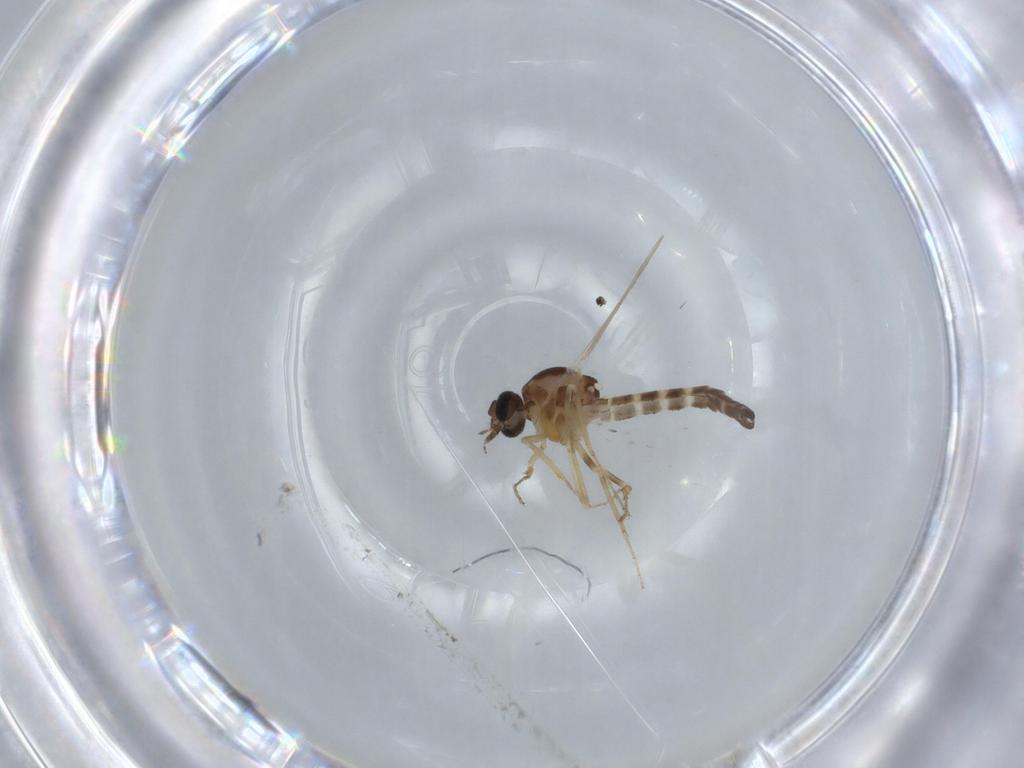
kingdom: Animalia
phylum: Arthropoda
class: Insecta
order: Diptera
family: Ceratopogonidae
